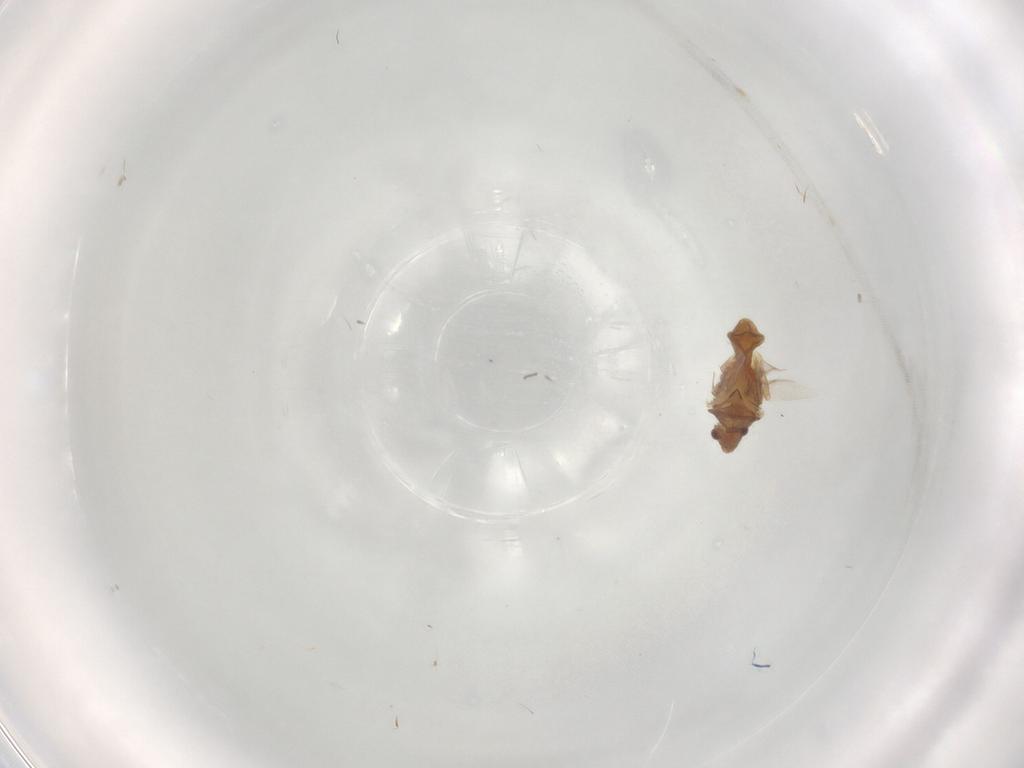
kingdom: Animalia
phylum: Arthropoda
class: Insecta
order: Hemiptera
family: Ceratocombidae
